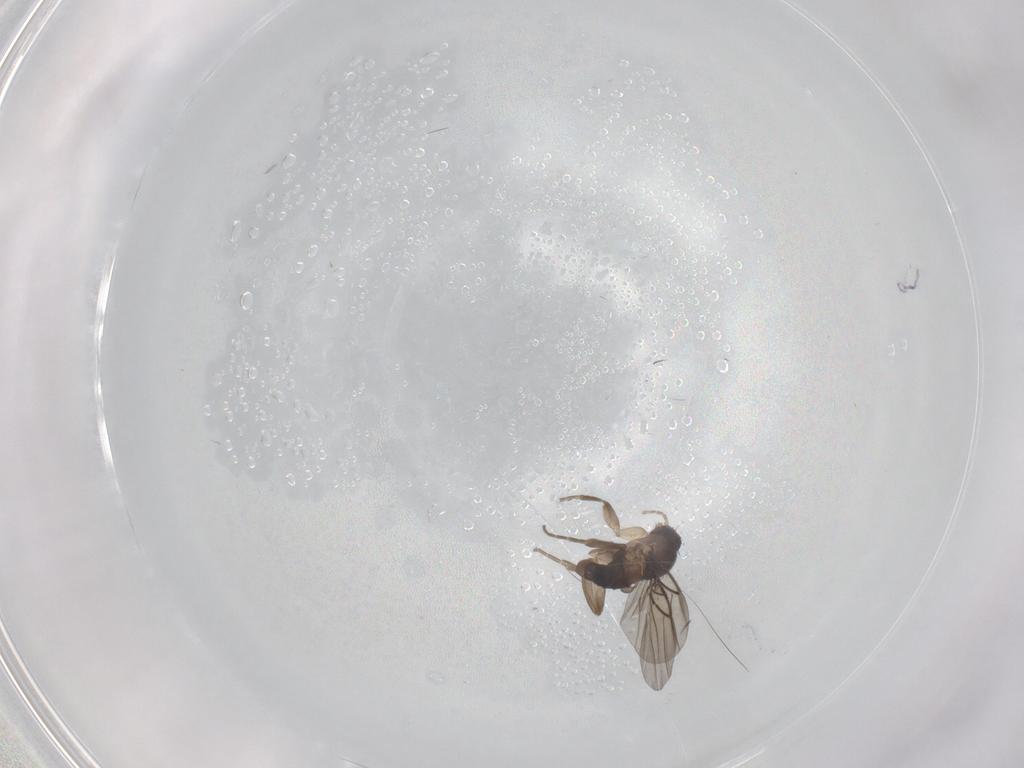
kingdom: Animalia
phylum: Arthropoda
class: Insecta
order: Diptera
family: Phoridae
